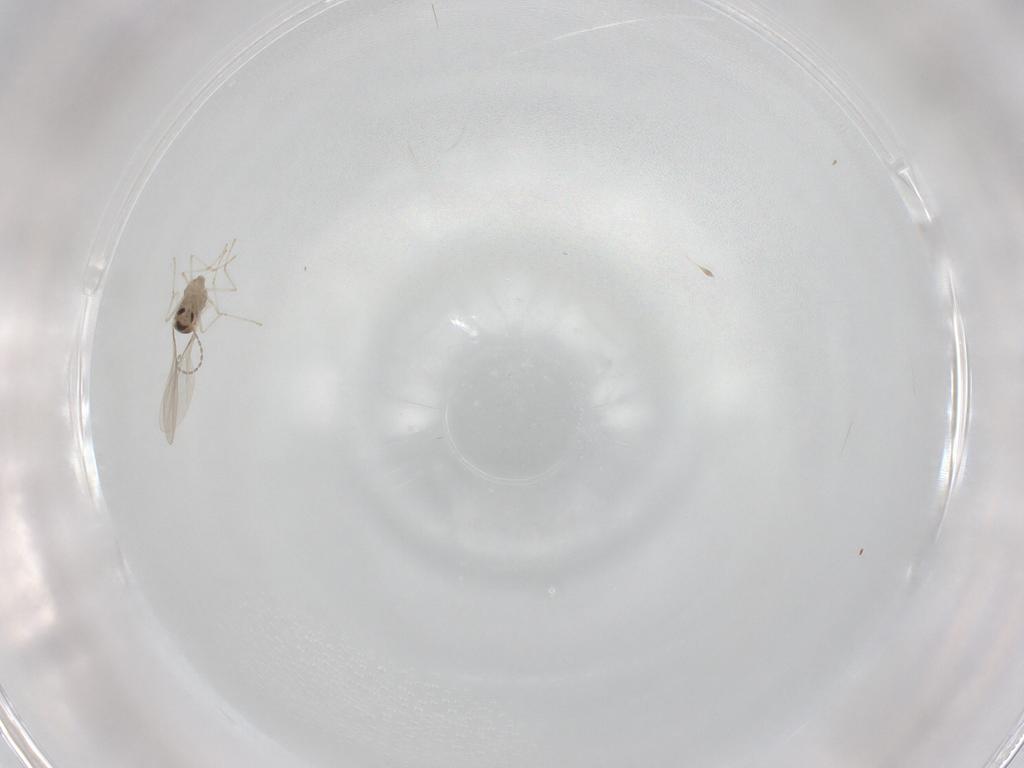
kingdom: Animalia
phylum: Arthropoda
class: Insecta
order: Diptera
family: Cecidomyiidae
